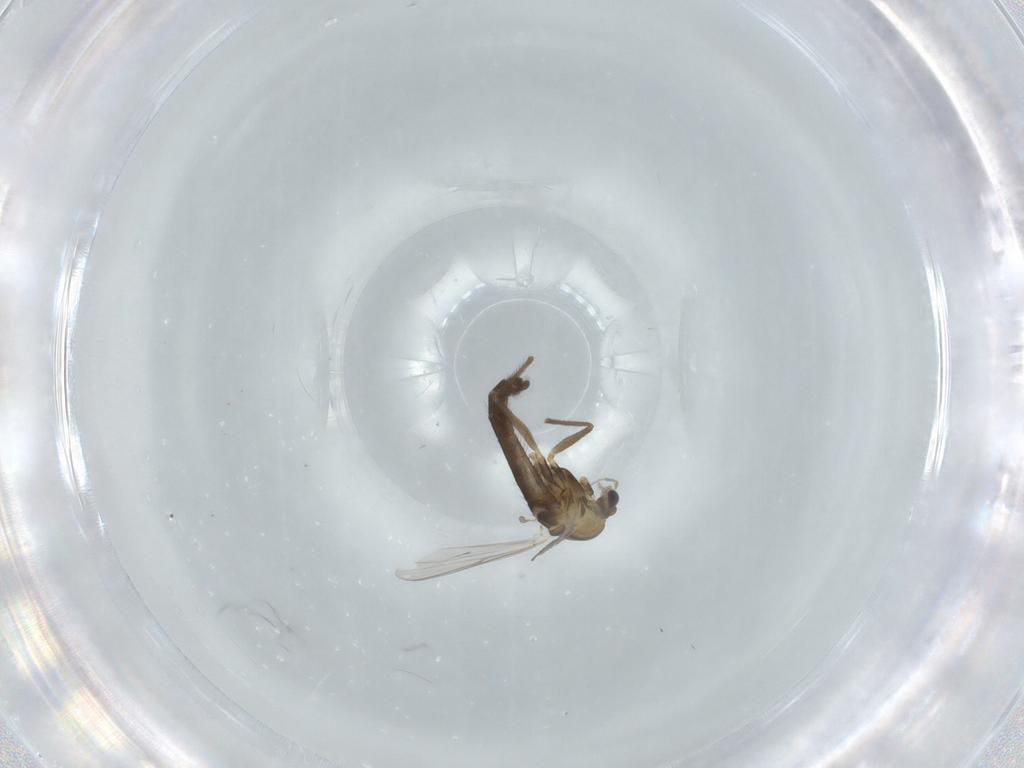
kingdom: Animalia
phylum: Arthropoda
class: Insecta
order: Diptera
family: Chironomidae
